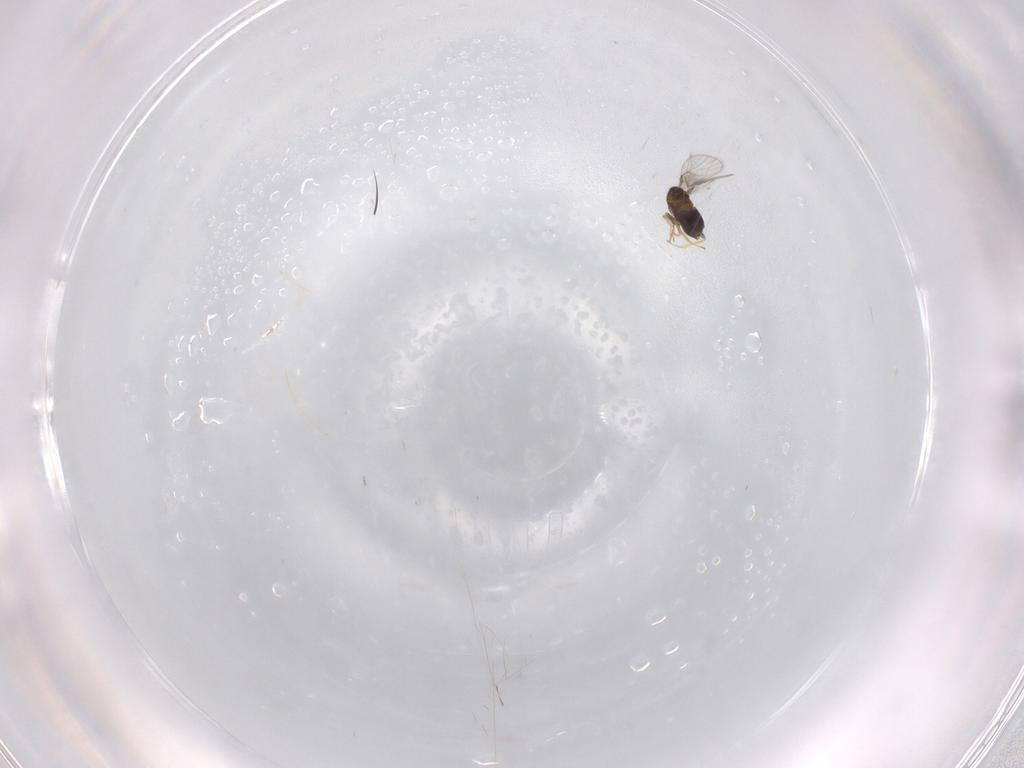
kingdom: Animalia
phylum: Arthropoda
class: Insecta
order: Hymenoptera
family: Trichogrammatidae
